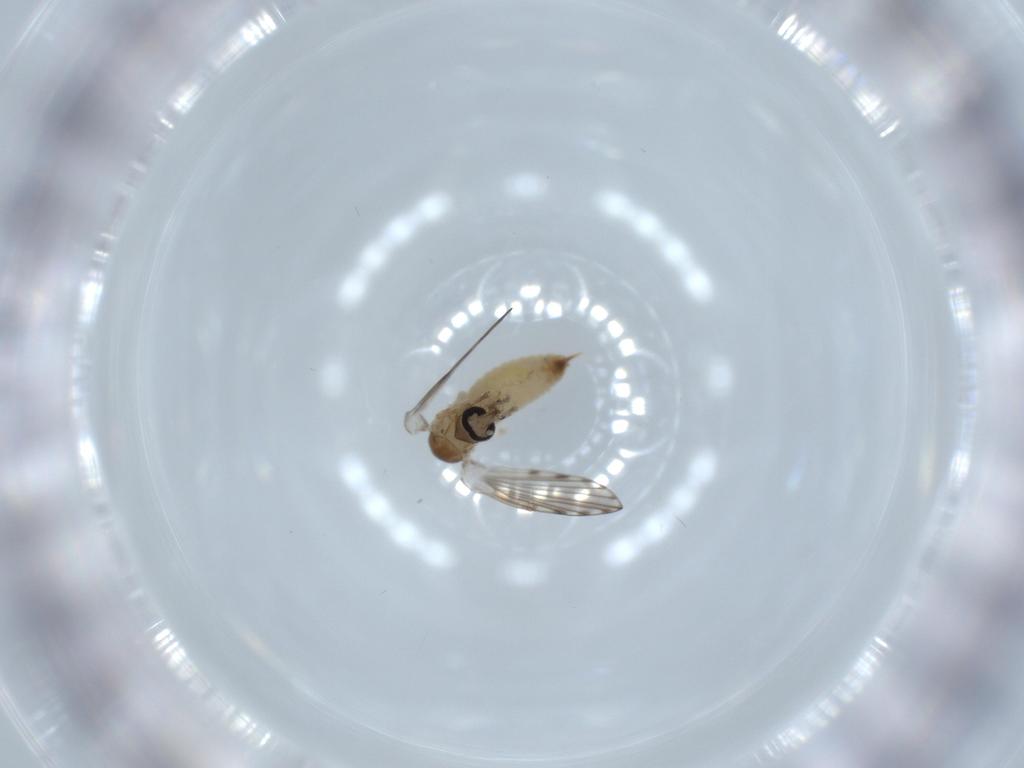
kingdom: Animalia
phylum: Arthropoda
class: Insecta
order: Diptera
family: Psychodidae
